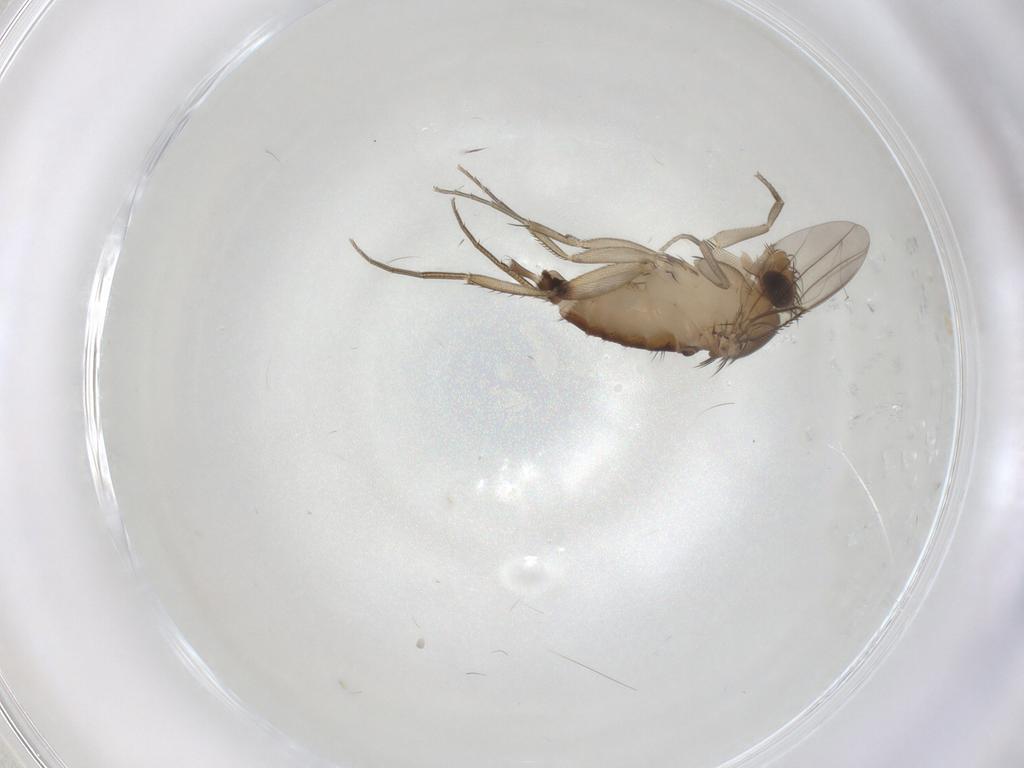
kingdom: Animalia
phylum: Arthropoda
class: Insecta
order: Diptera
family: Phoridae
